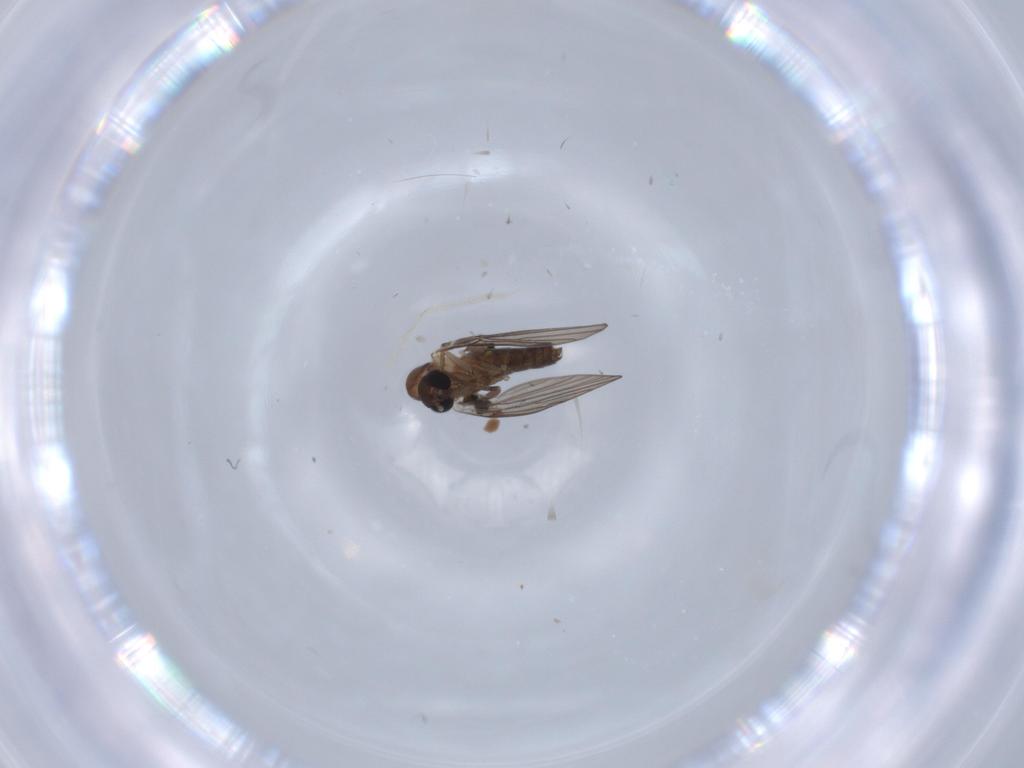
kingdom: Animalia
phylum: Arthropoda
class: Insecta
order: Diptera
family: Psychodidae
